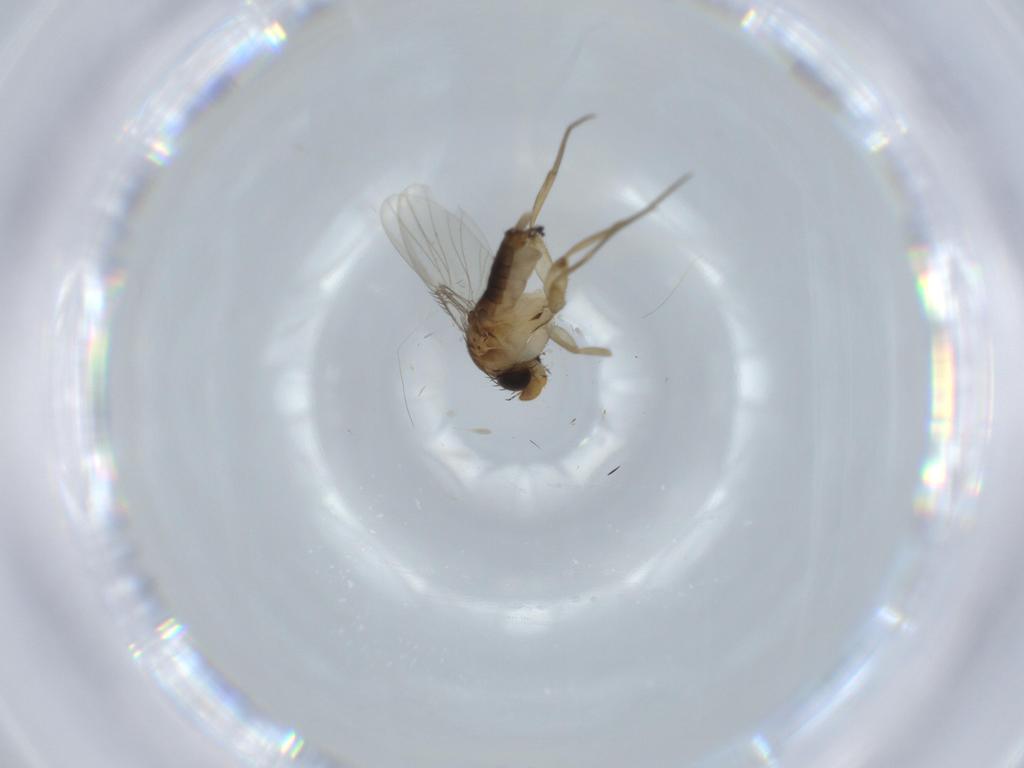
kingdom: Animalia
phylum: Arthropoda
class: Insecta
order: Diptera
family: Phoridae
